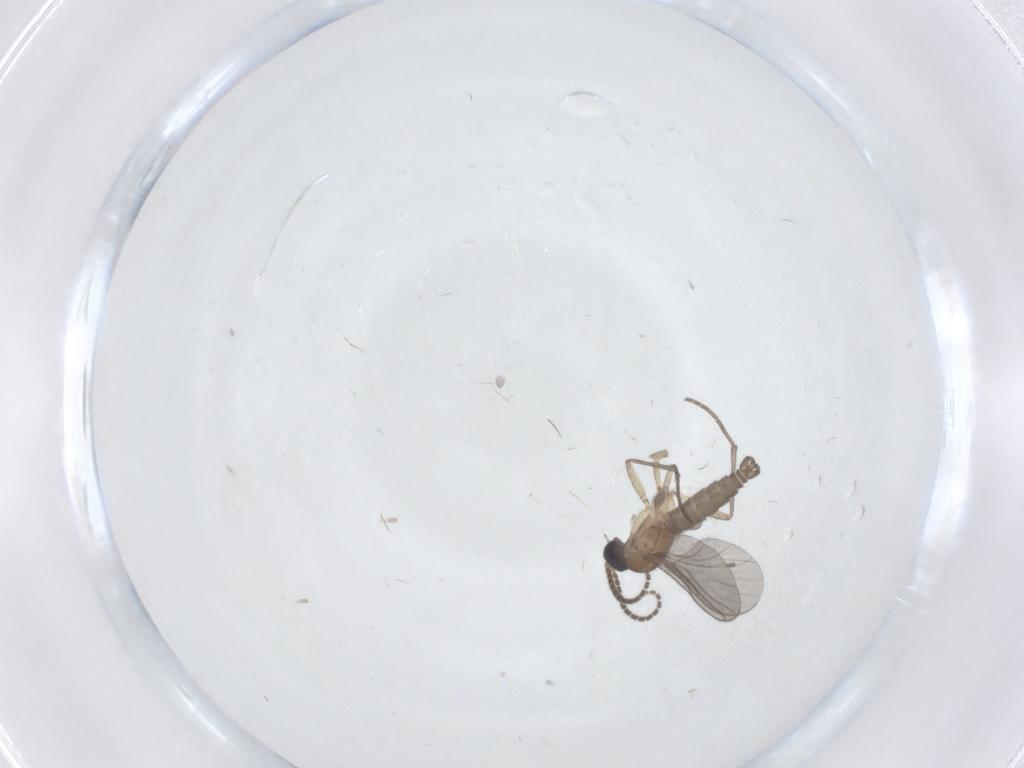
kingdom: Animalia
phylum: Arthropoda
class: Insecta
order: Diptera
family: Sciaridae
